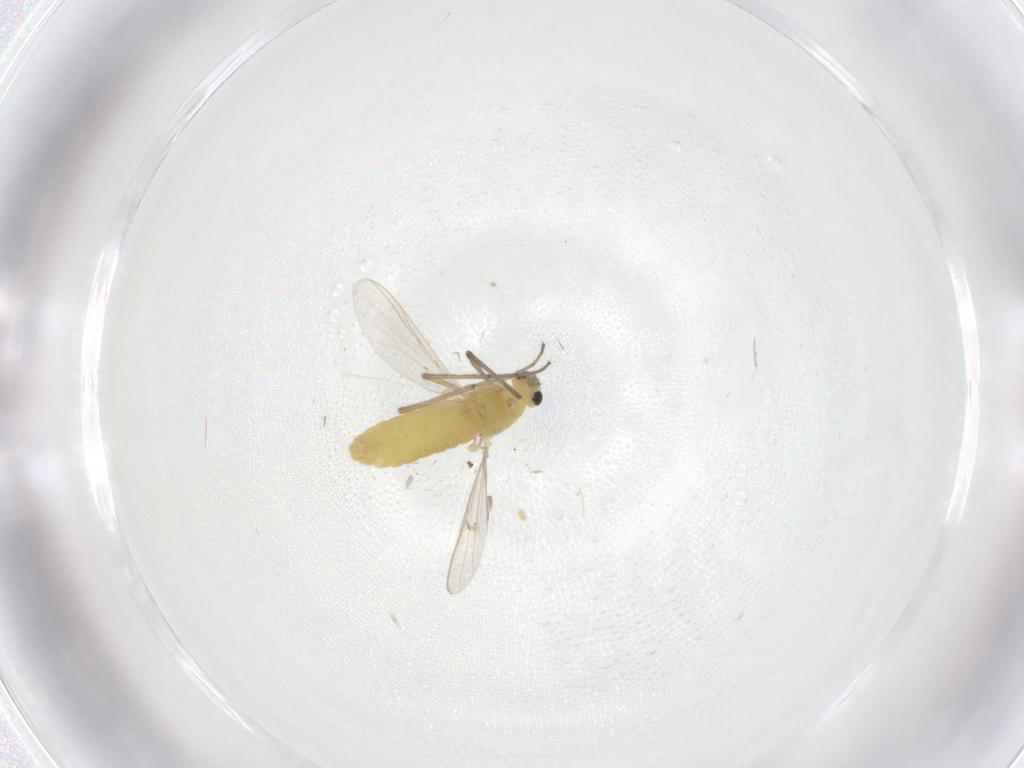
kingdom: Animalia
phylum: Arthropoda
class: Insecta
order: Diptera
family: Chironomidae
